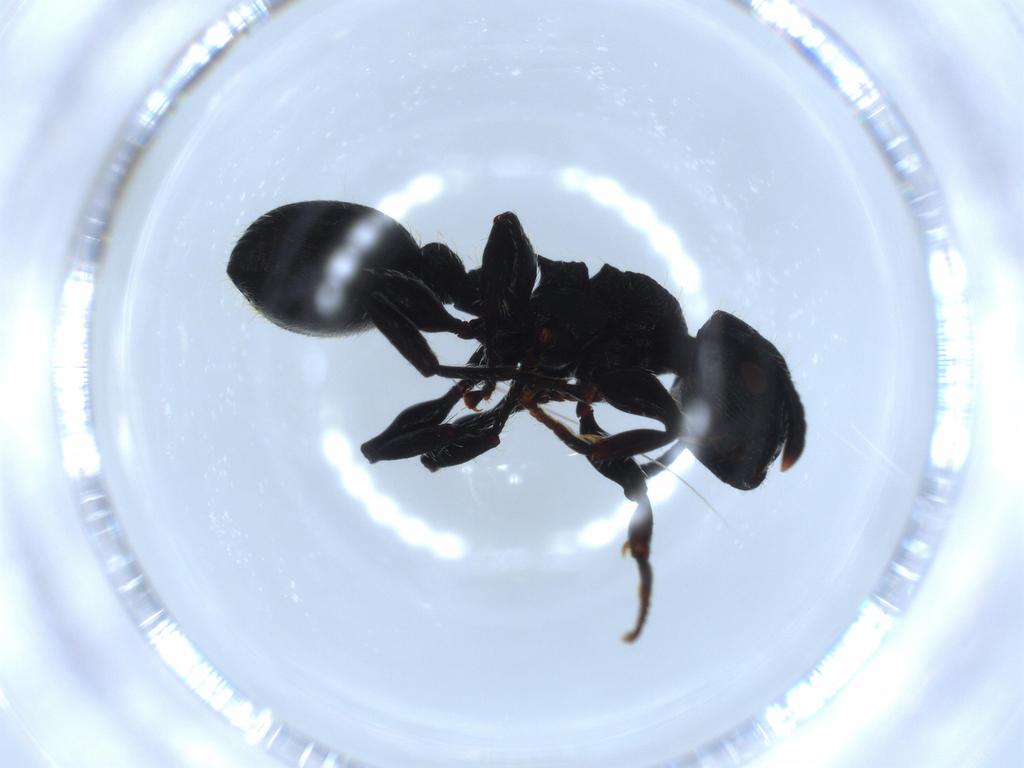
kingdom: Animalia
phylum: Arthropoda
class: Insecta
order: Hymenoptera
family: Formicidae
